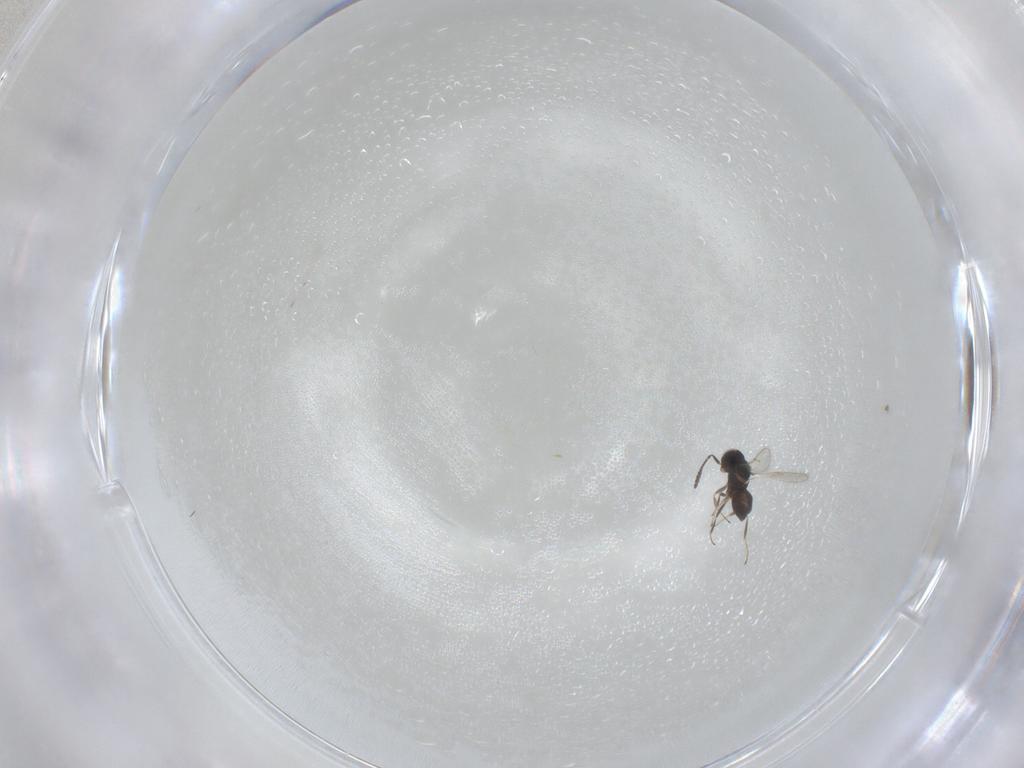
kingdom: Animalia
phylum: Arthropoda
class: Insecta
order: Hymenoptera
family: Scelionidae
